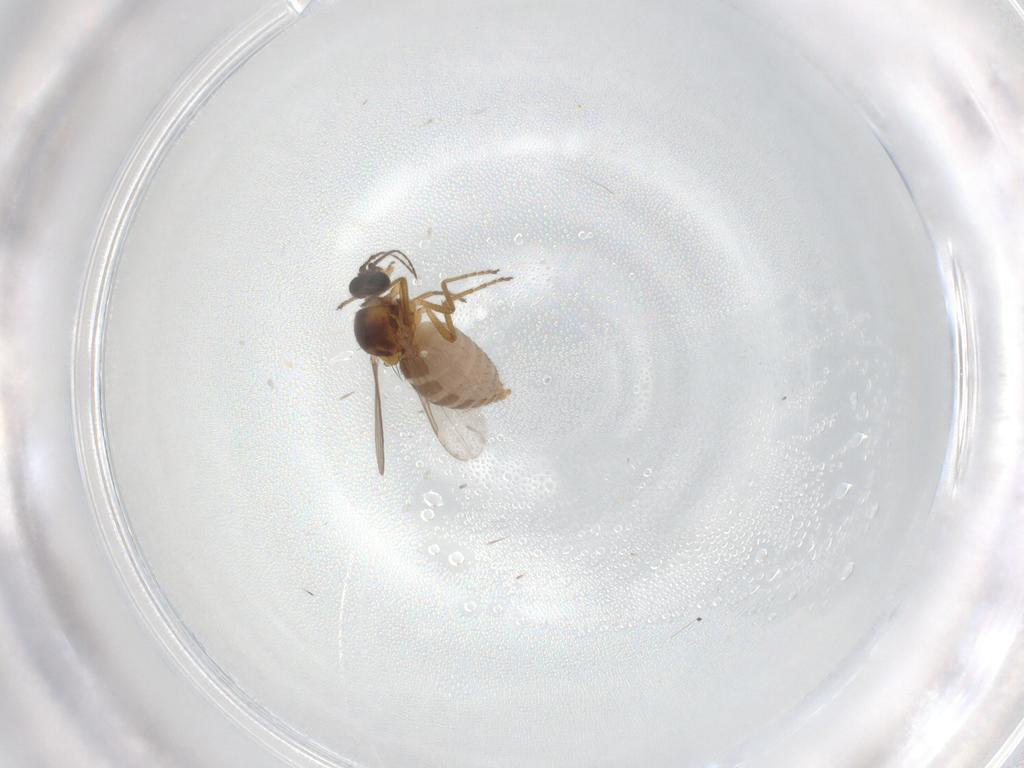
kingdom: Animalia
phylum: Arthropoda
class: Insecta
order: Diptera
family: Ceratopogonidae
